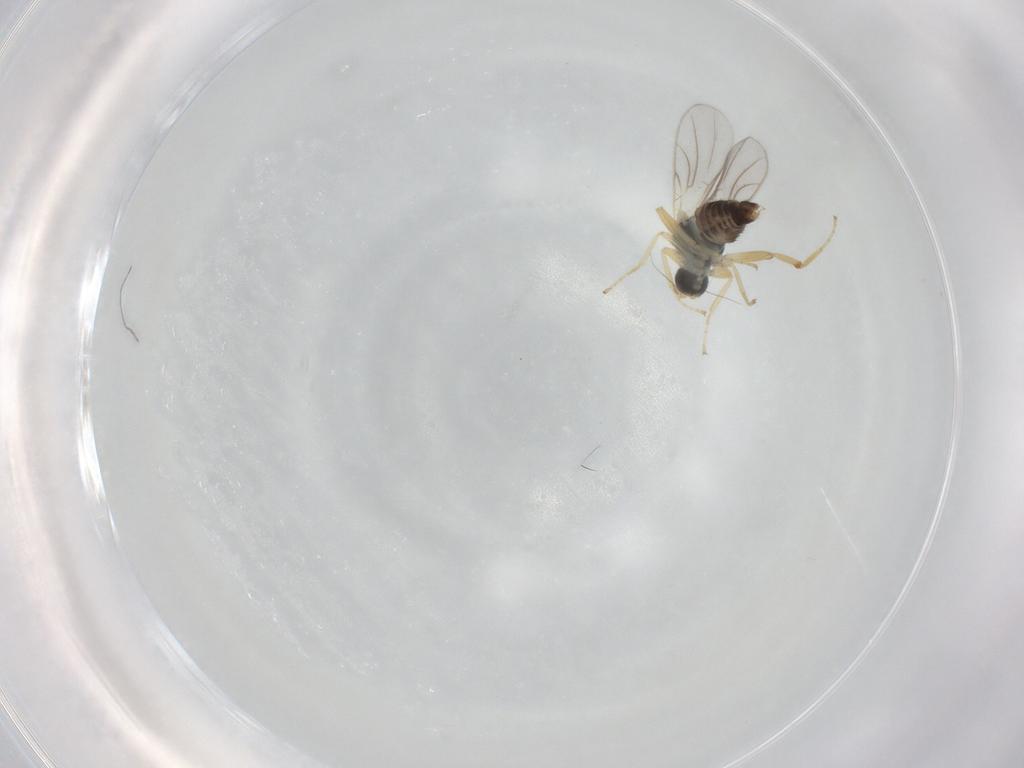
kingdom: Animalia
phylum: Arthropoda
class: Insecta
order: Diptera
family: Hybotidae
